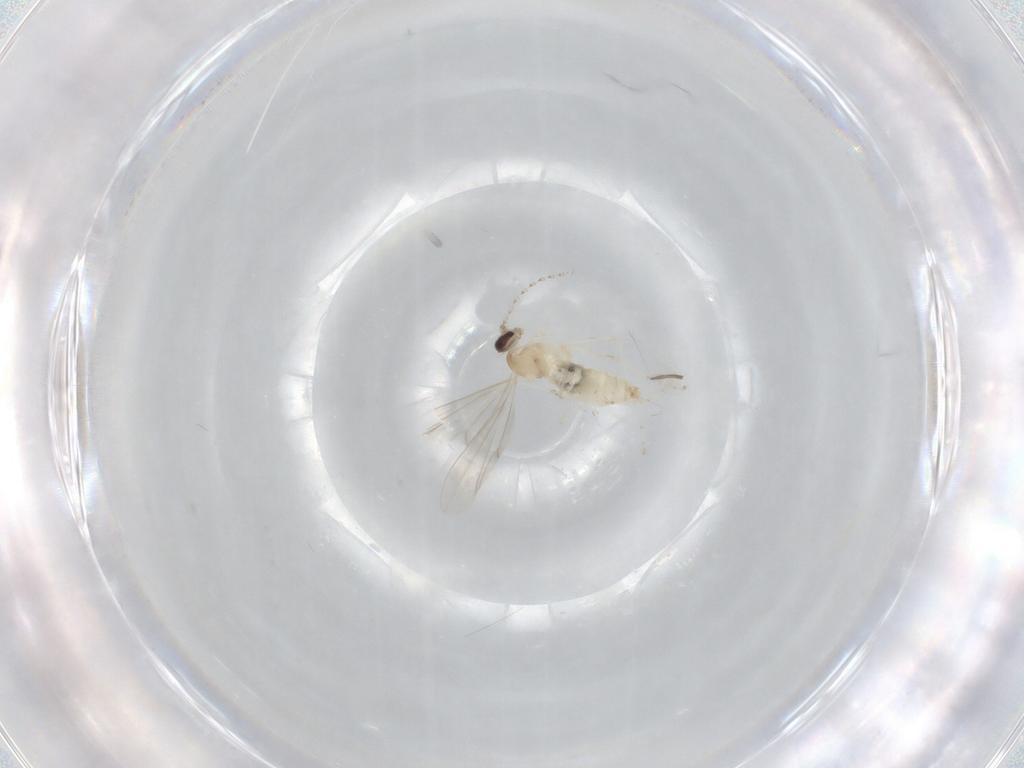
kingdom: Animalia
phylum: Arthropoda
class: Insecta
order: Diptera
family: Cecidomyiidae
